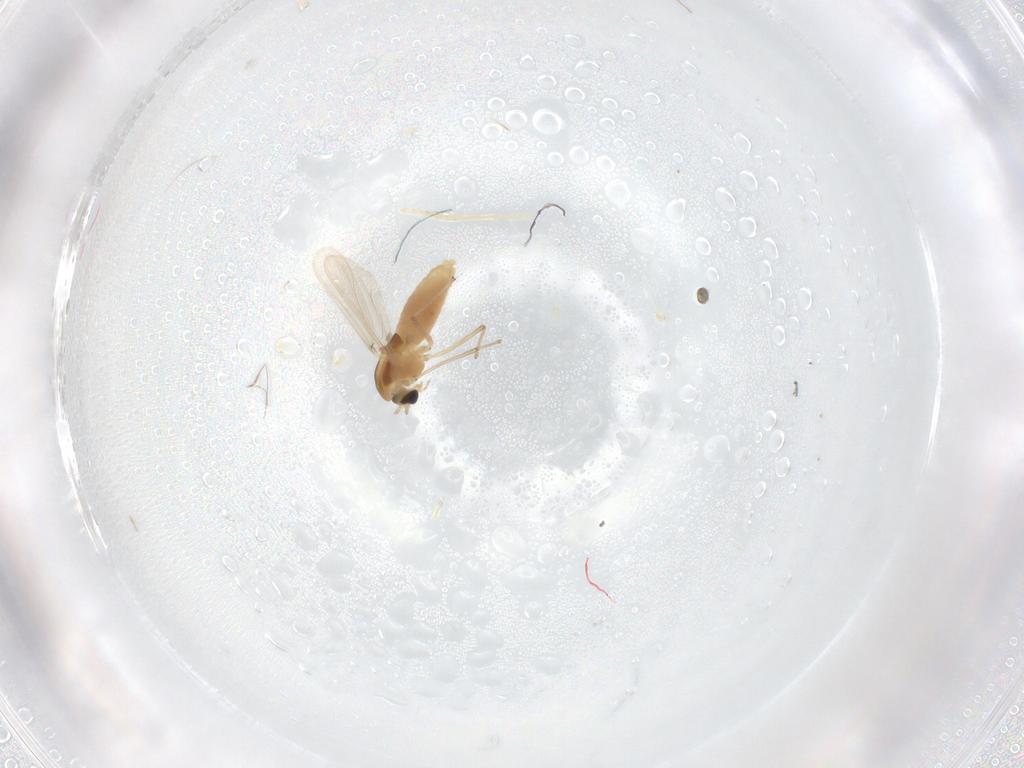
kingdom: Animalia
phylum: Arthropoda
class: Insecta
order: Diptera
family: Chironomidae
